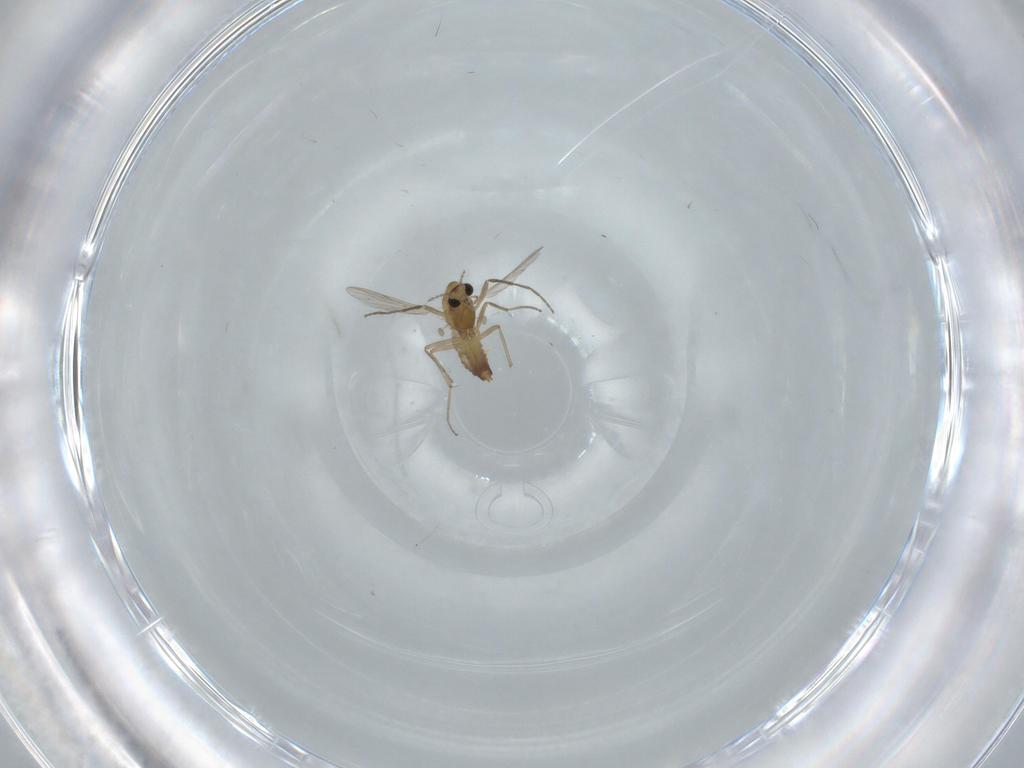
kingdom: Animalia
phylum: Arthropoda
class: Insecta
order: Diptera
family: Chironomidae
